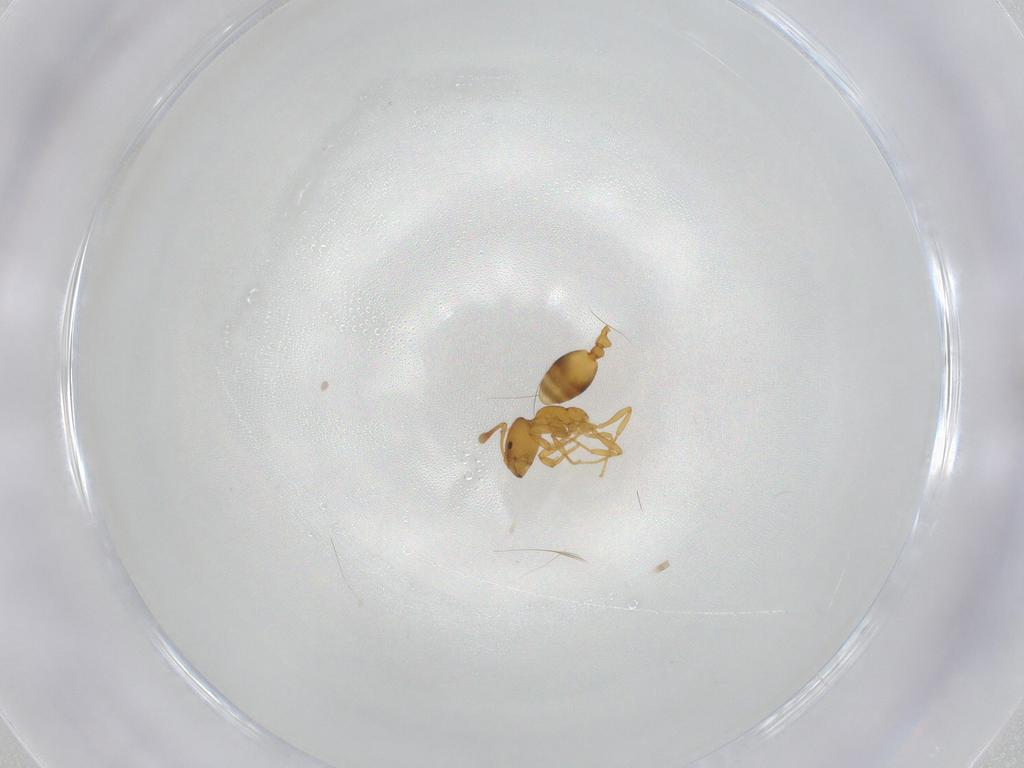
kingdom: Animalia
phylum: Arthropoda
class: Insecta
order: Hymenoptera
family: Formicidae
